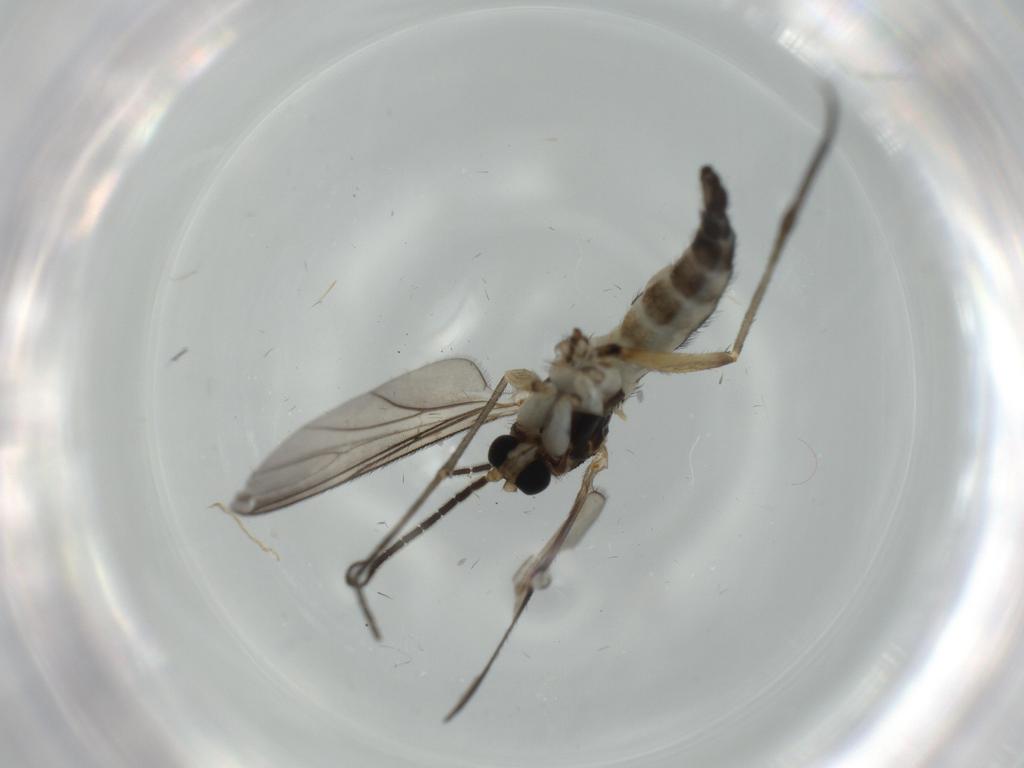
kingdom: Animalia
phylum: Arthropoda
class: Insecta
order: Diptera
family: Sciaridae
